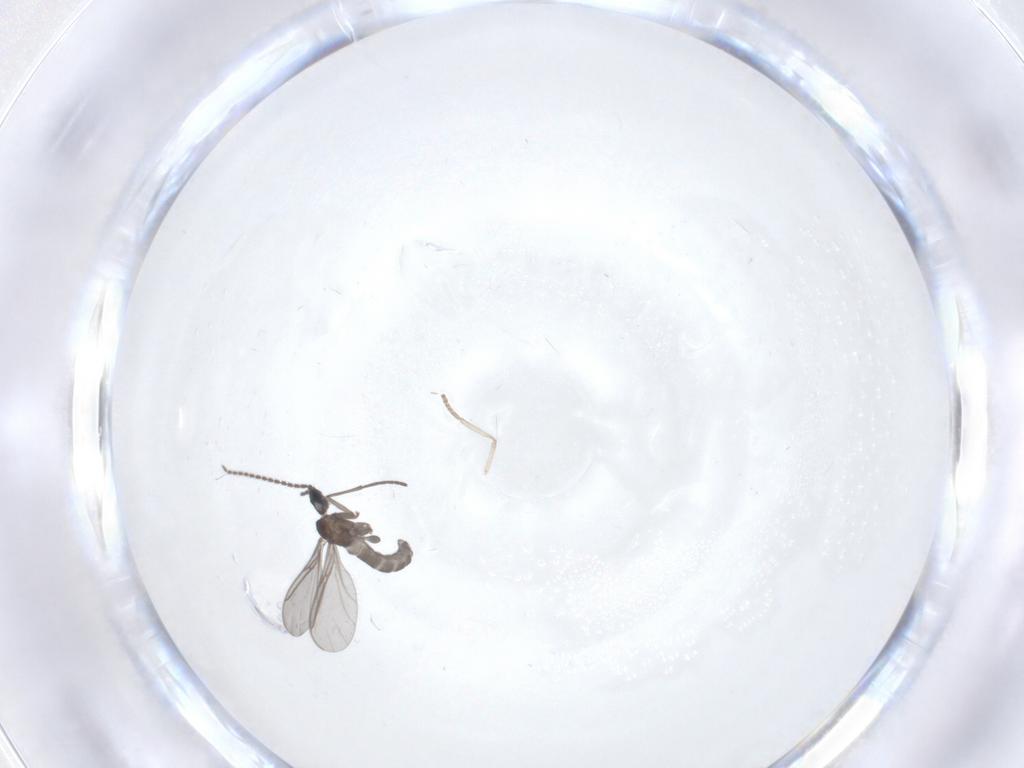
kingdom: Animalia
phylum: Arthropoda
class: Insecta
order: Diptera
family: Sciaridae
